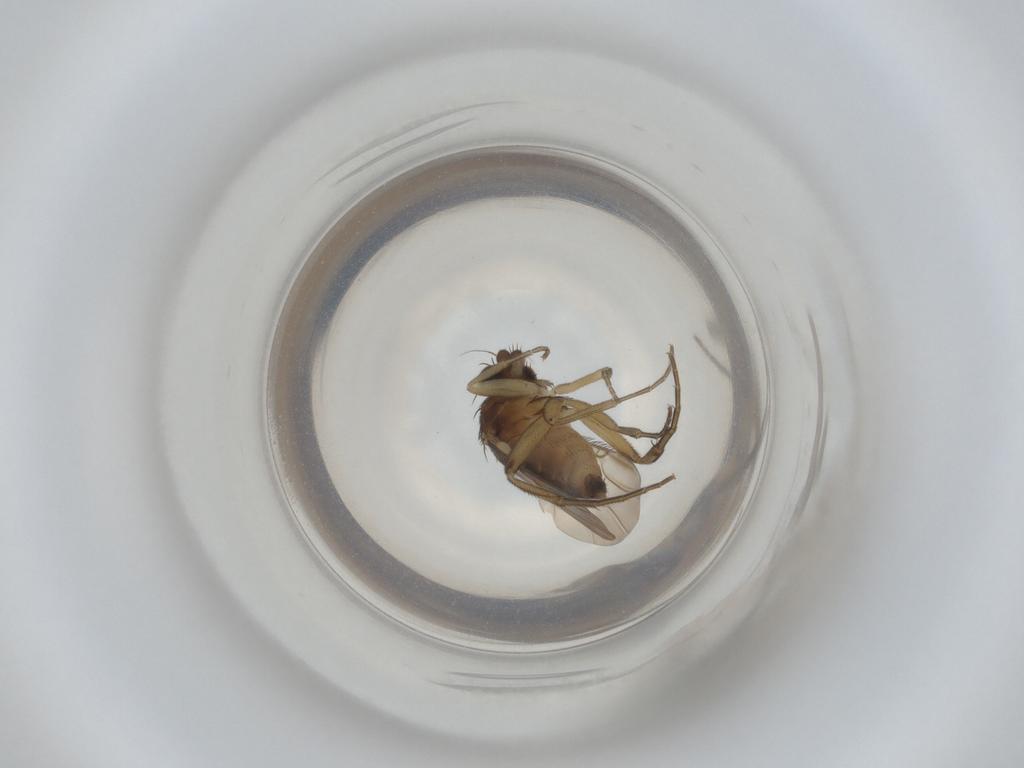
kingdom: Animalia
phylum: Arthropoda
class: Insecta
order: Diptera
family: Phoridae
